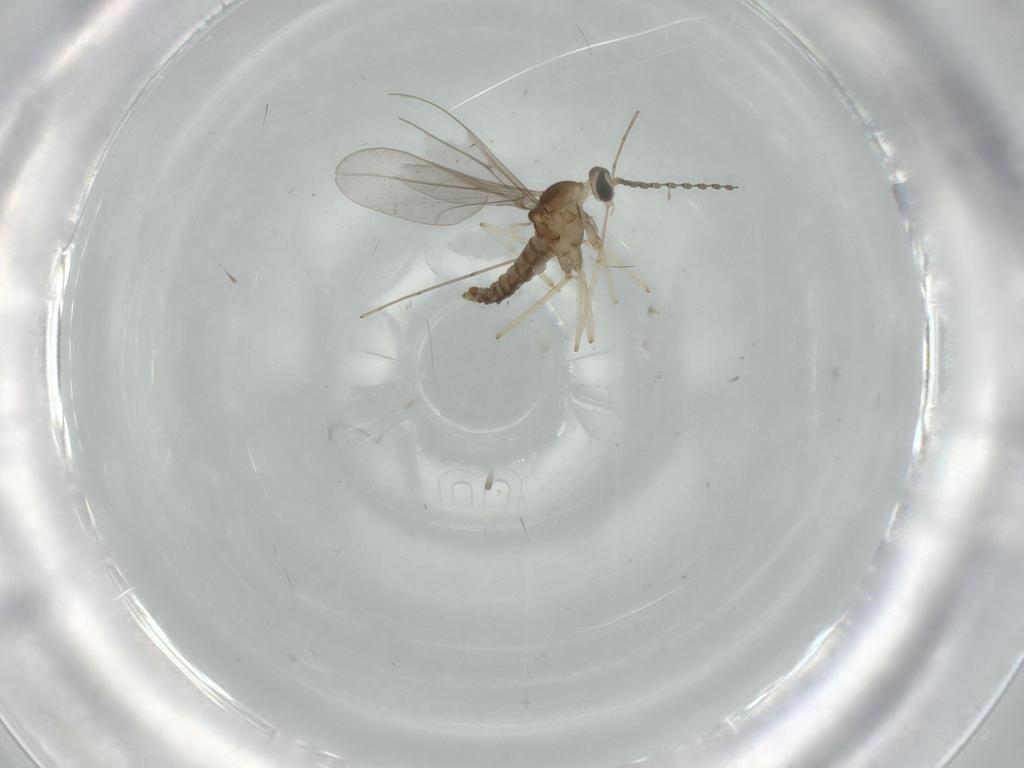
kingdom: Animalia
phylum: Arthropoda
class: Insecta
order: Diptera
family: Cecidomyiidae
